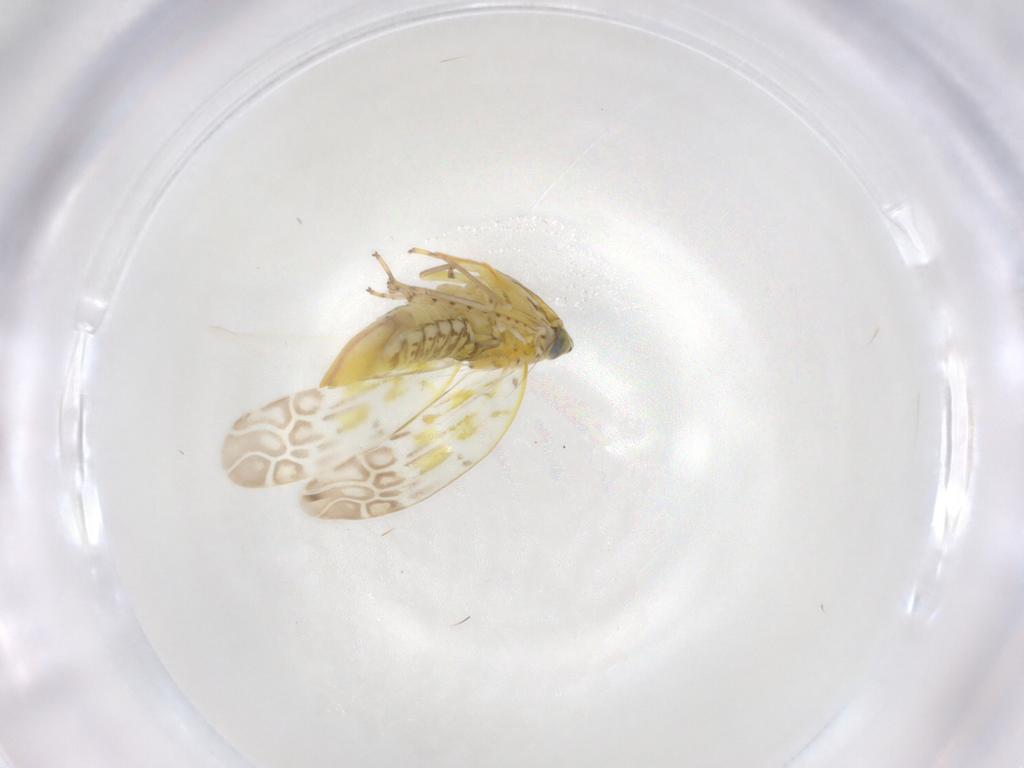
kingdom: Animalia
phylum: Arthropoda
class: Insecta
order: Hemiptera
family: Cicadellidae
